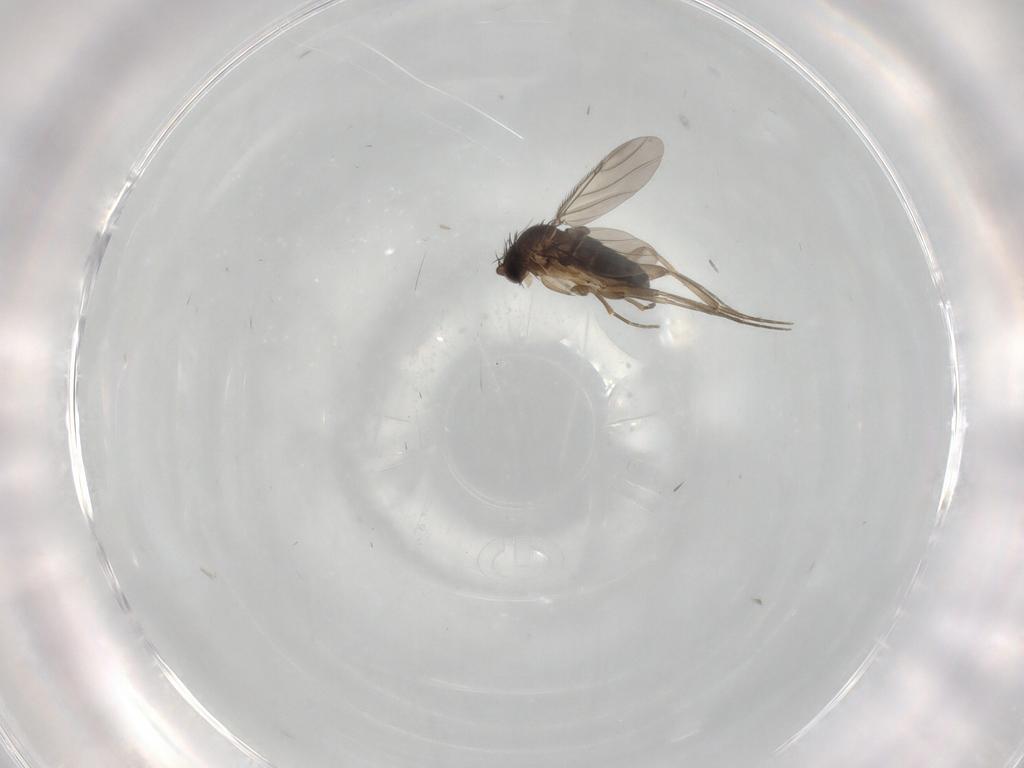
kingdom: Animalia
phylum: Arthropoda
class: Insecta
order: Diptera
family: Phoridae
